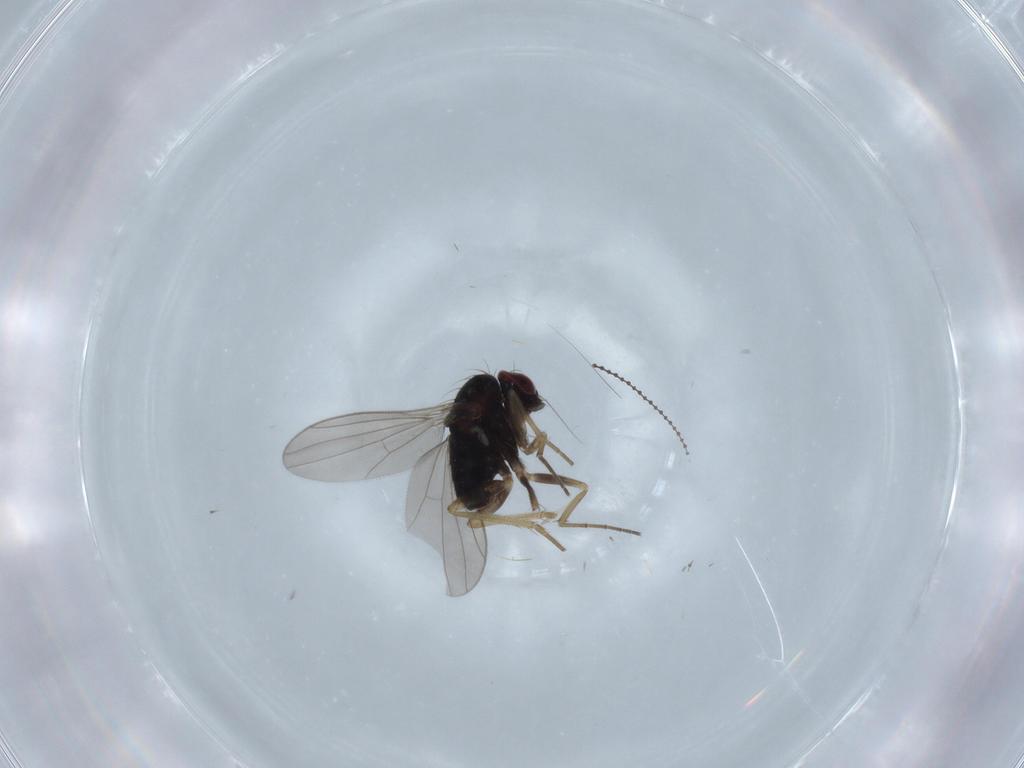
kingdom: Animalia
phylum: Arthropoda
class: Insecta
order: Diptera
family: Dolichopodidae
